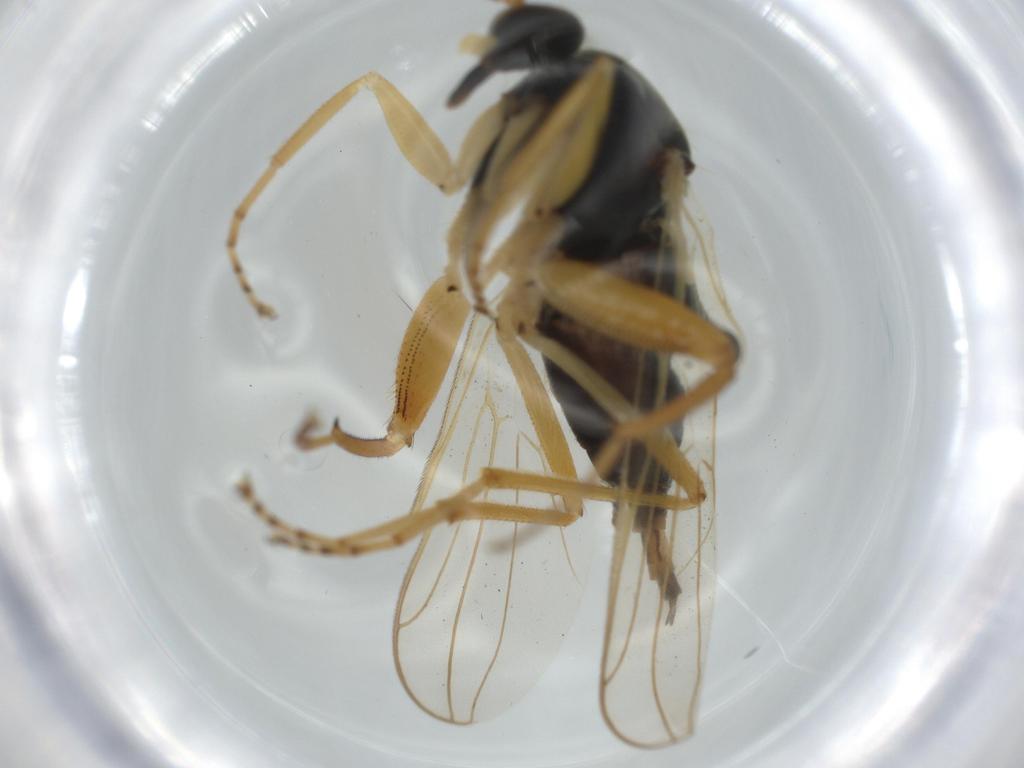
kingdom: Animalia
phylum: Arthropoda
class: Insecta
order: Diptera
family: Hybotidae
